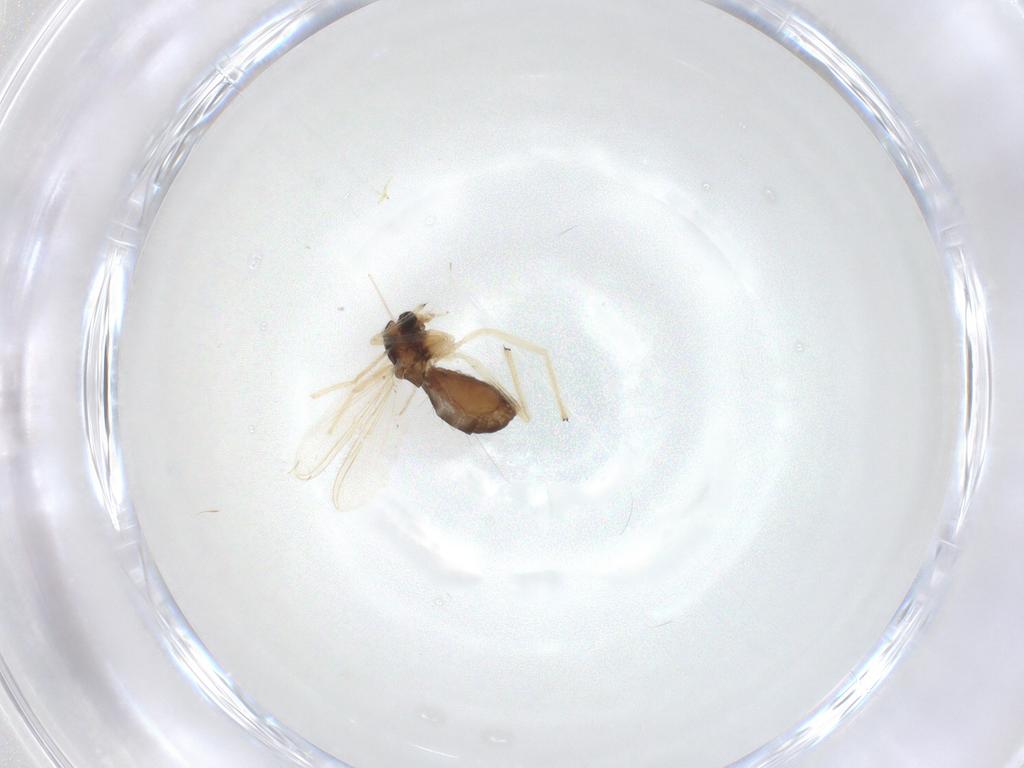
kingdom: Animalia
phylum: Arthropoda
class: Insecta
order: Diptera
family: Chironomidae
